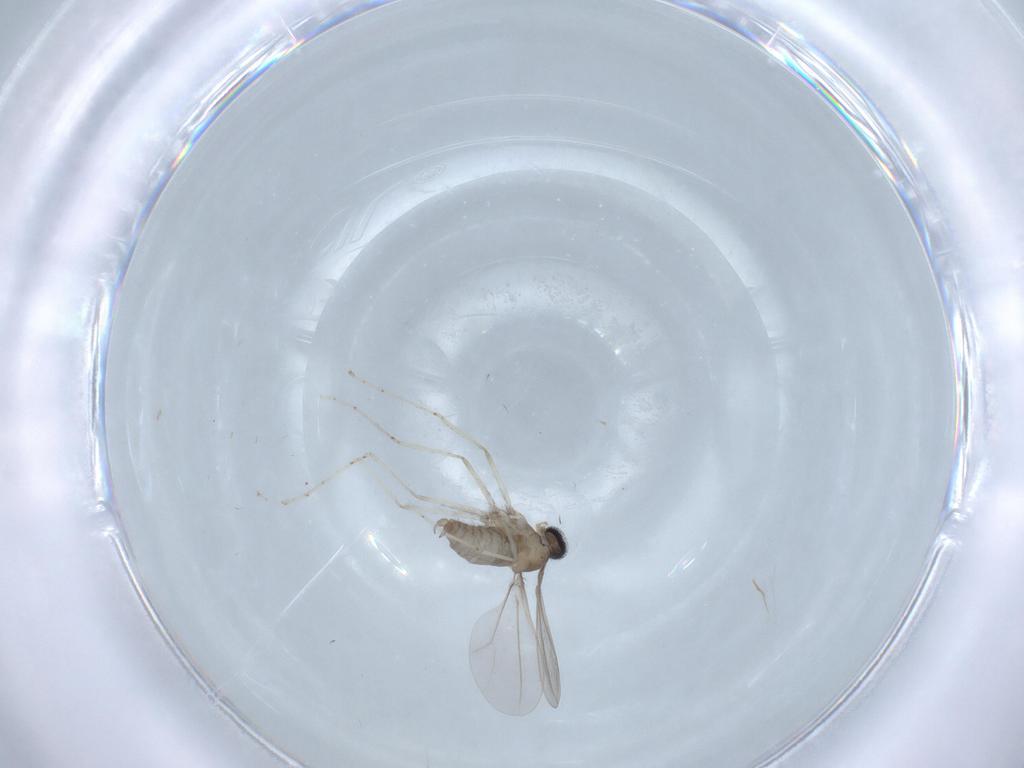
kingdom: Animalia
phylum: Arthropoda
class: Insecta
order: Diptera
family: Cecidomyiidae
